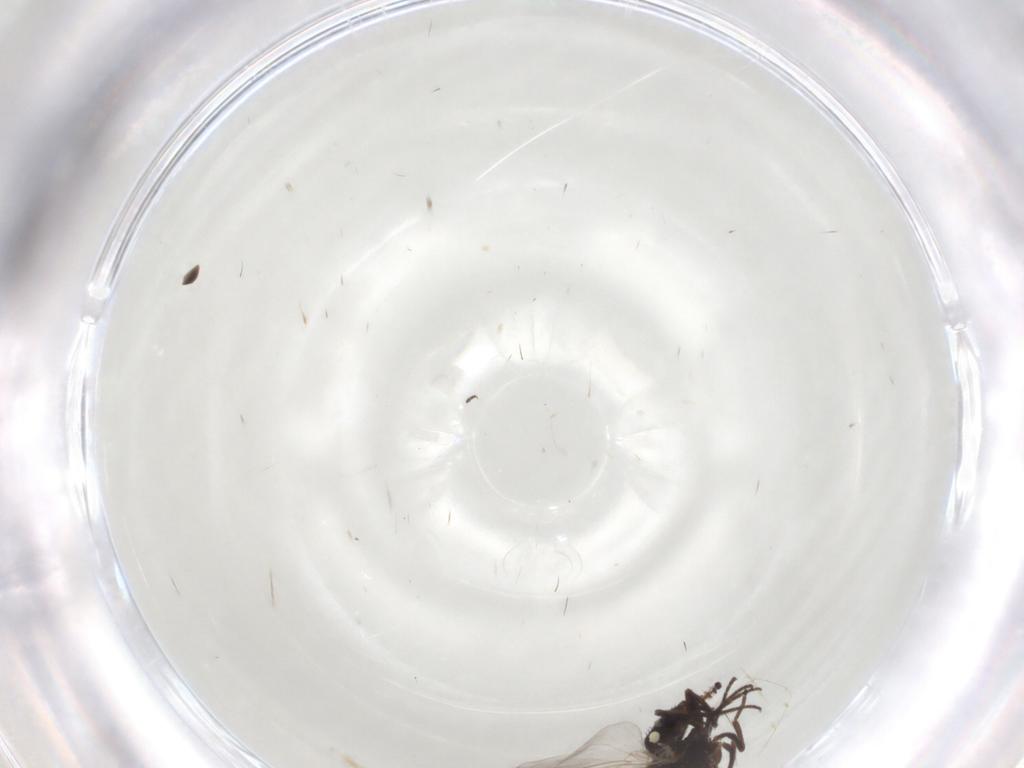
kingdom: Animalia
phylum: Arthropoda
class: Insecta
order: Diptera
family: Agromyzidae
